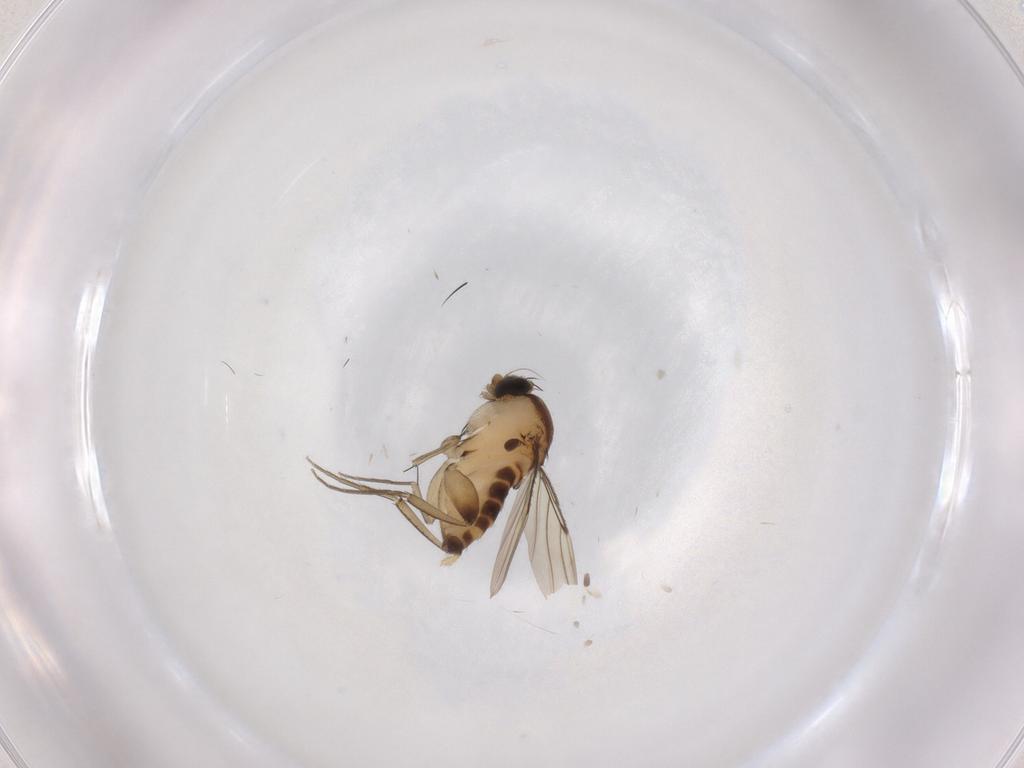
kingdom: Animalia
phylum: Arthropoda
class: Insecta
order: Diptera
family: Phoridae
